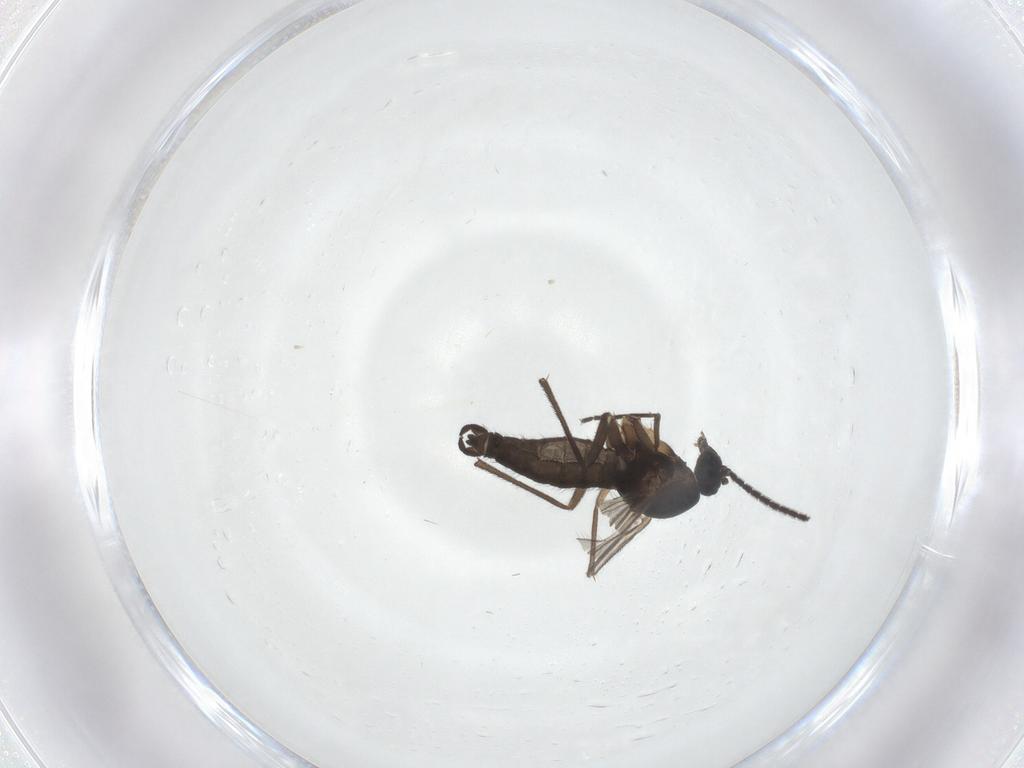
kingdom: Animalia
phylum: Arthropoda
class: Insecta
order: Diptera
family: Sciaridae
